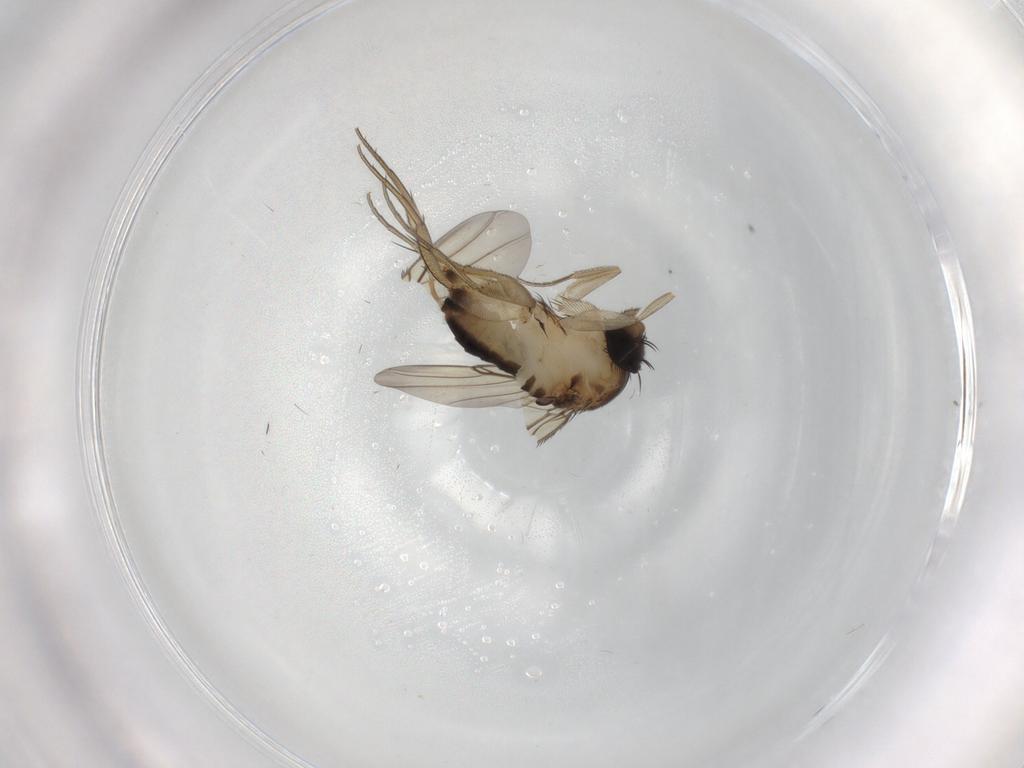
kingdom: Animalia
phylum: Arthropoda
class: Insecta
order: Diptera
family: Phoridae
